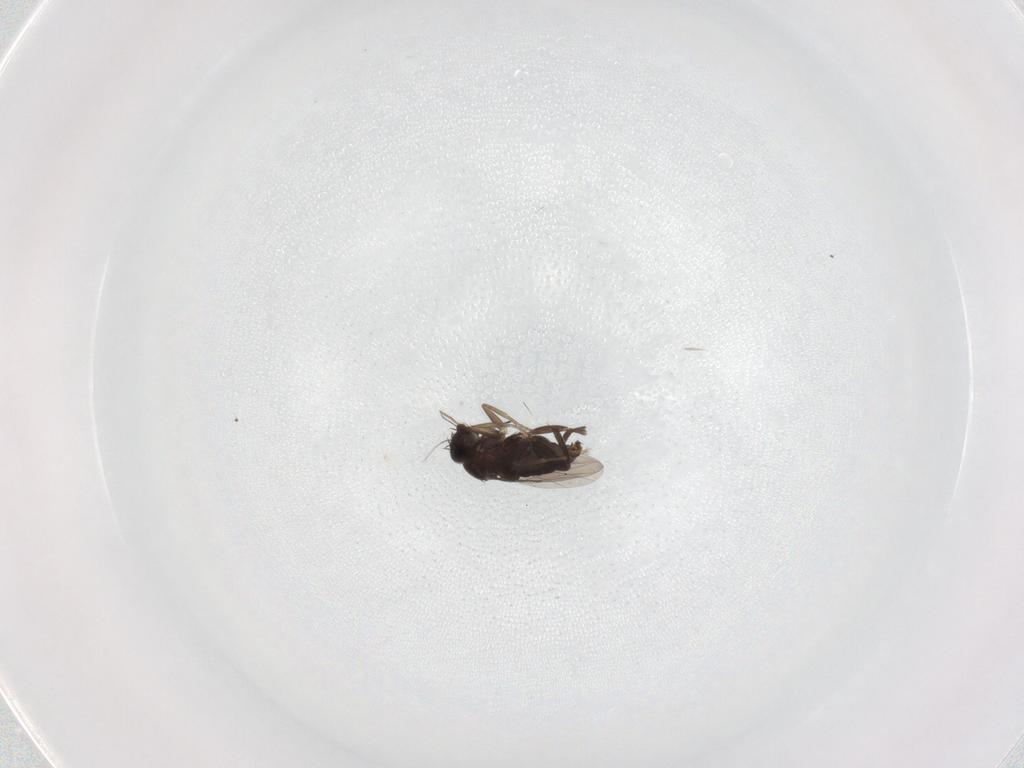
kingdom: Animalia
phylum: Arthropoda
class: Insecta
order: Diptera
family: Phoridae
